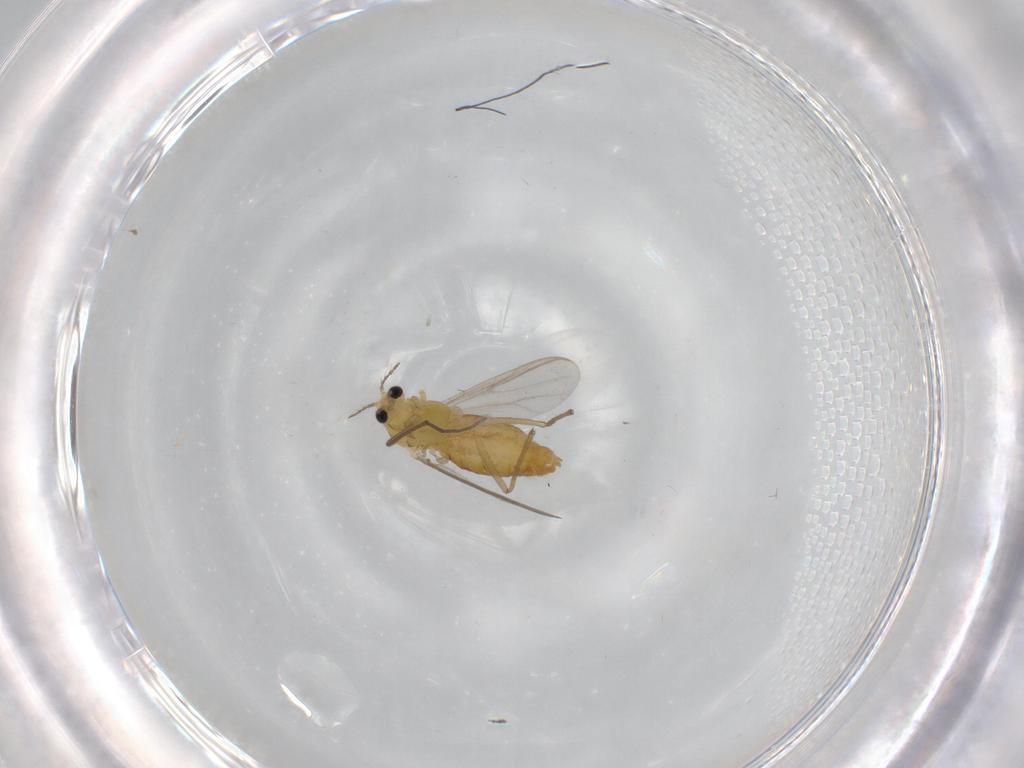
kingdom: Animalia
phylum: Arthropoda
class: Insecta
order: Diptera
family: Chironomidae
